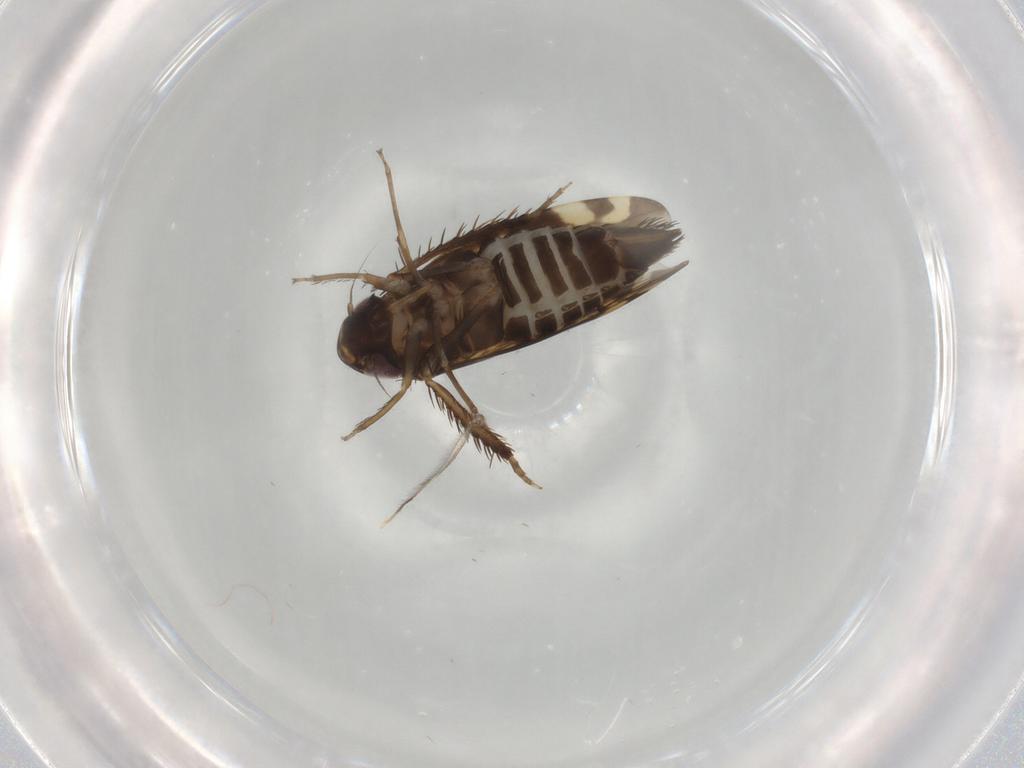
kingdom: Animalia
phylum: Arthropoda
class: Insecta
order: Hemiptera
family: Cicadellidae
